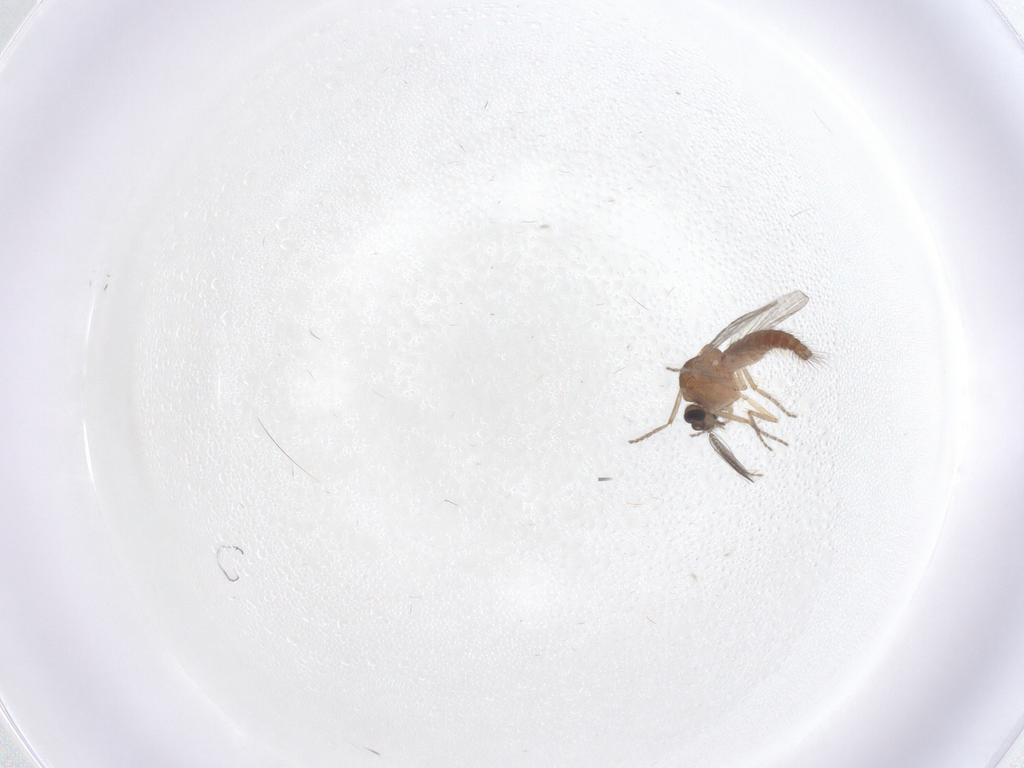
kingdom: Animalia
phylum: Arthropoda
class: Insecta
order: Diptera
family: Ceratopogonidae
